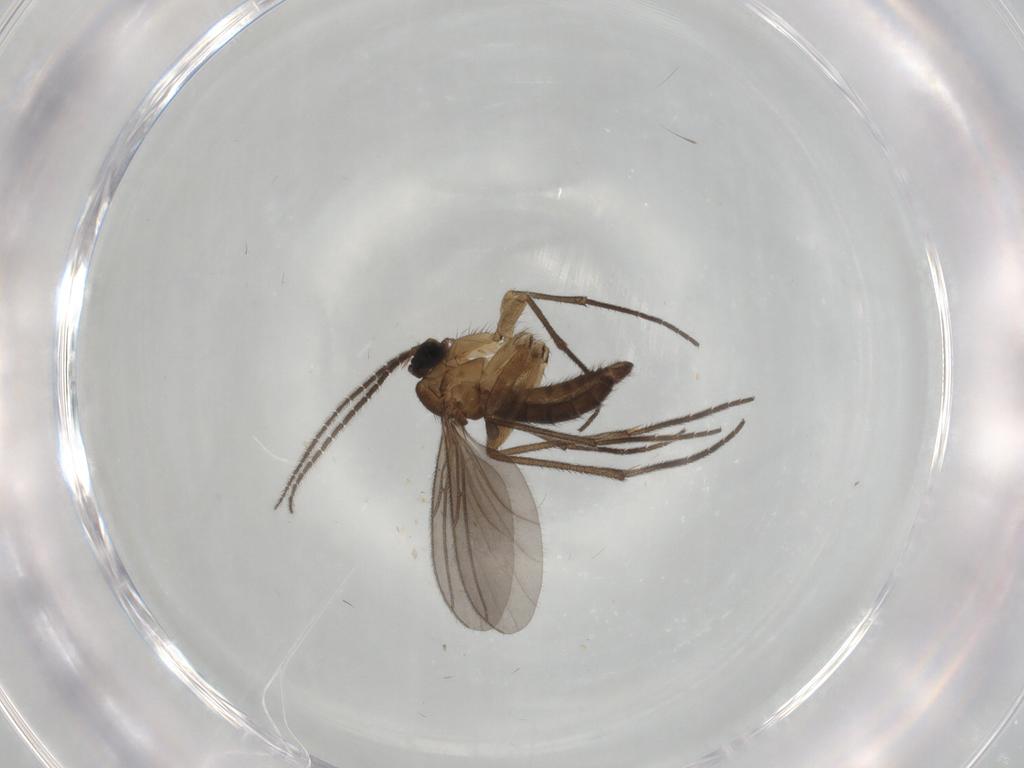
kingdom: Animalia
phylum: Arthropoda
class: Insecta
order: Diptera
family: Sciaridae
